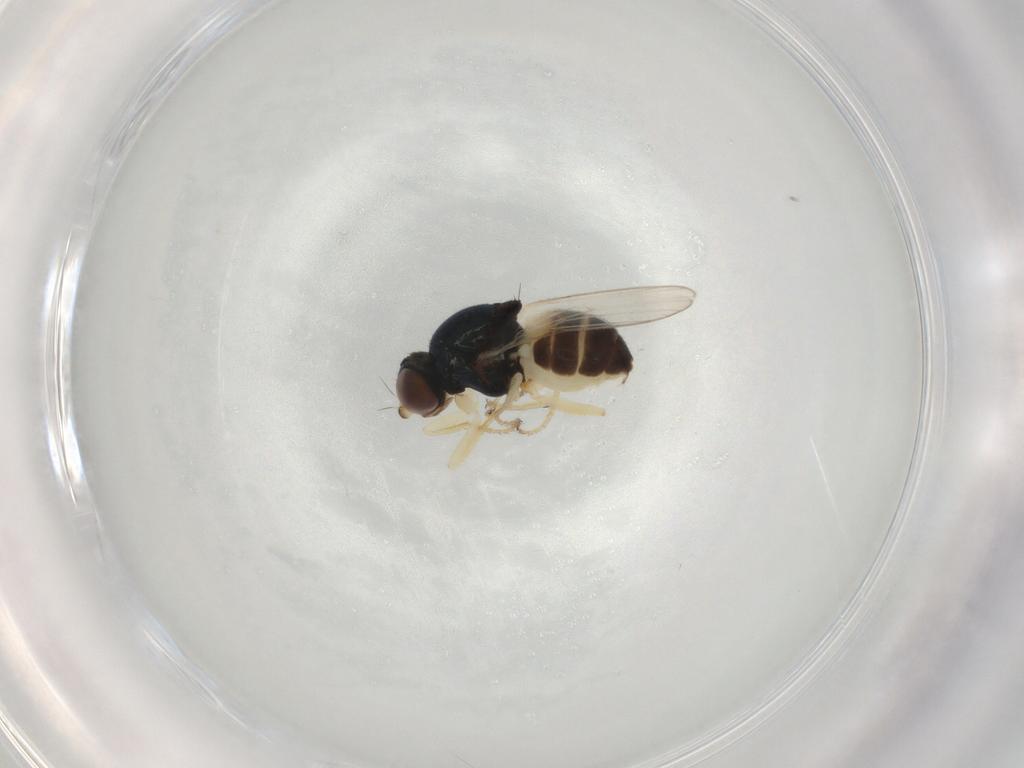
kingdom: Animalia
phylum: Arthropoda
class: Insecta
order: Diptera
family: Chloropidae
